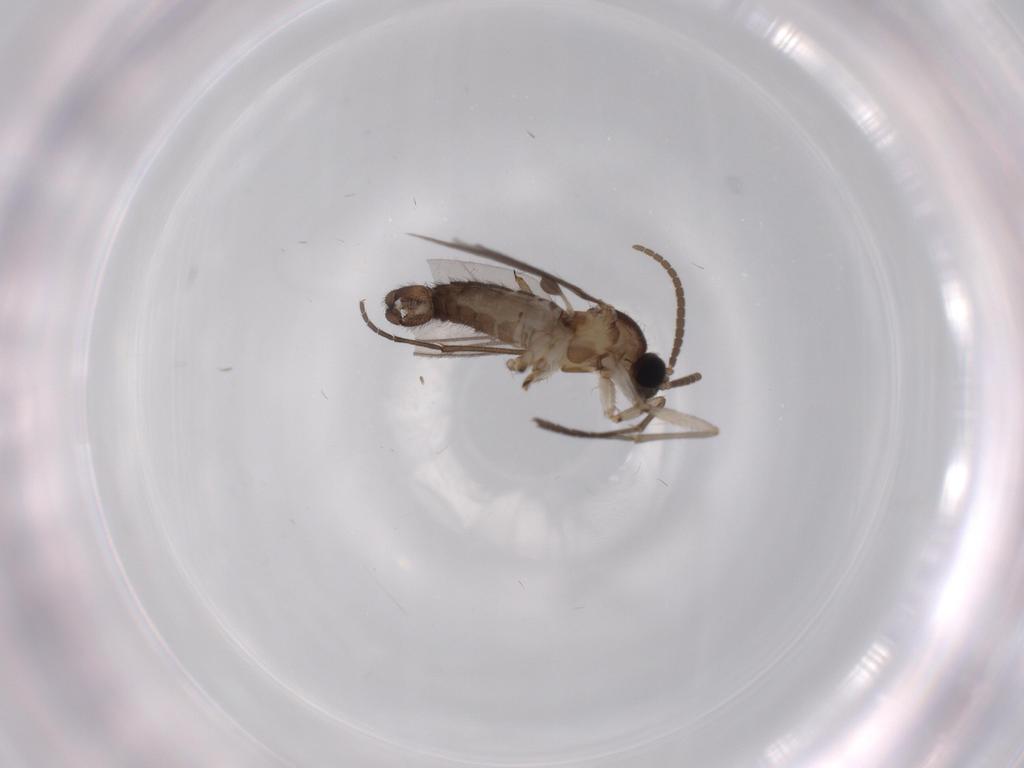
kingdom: Animalia
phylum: Arthropoda
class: Insecta
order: Diptera
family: Sciaridae
